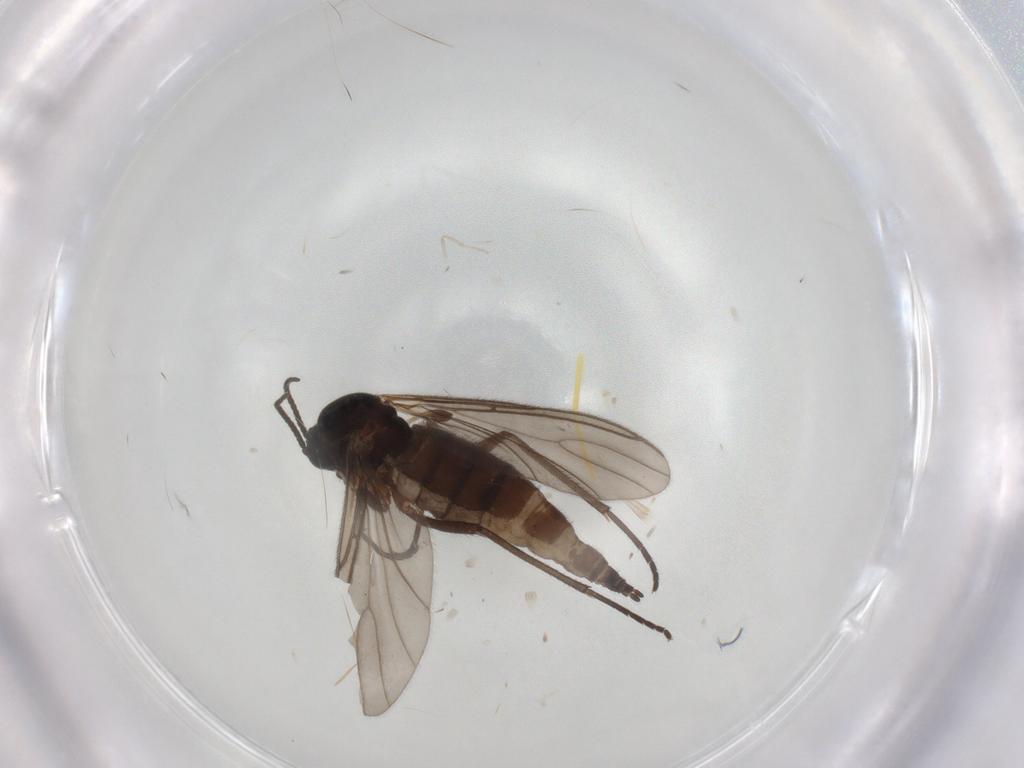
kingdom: Animalia
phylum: Arthropoda
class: Insecta
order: Diptera
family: Sciaridae
